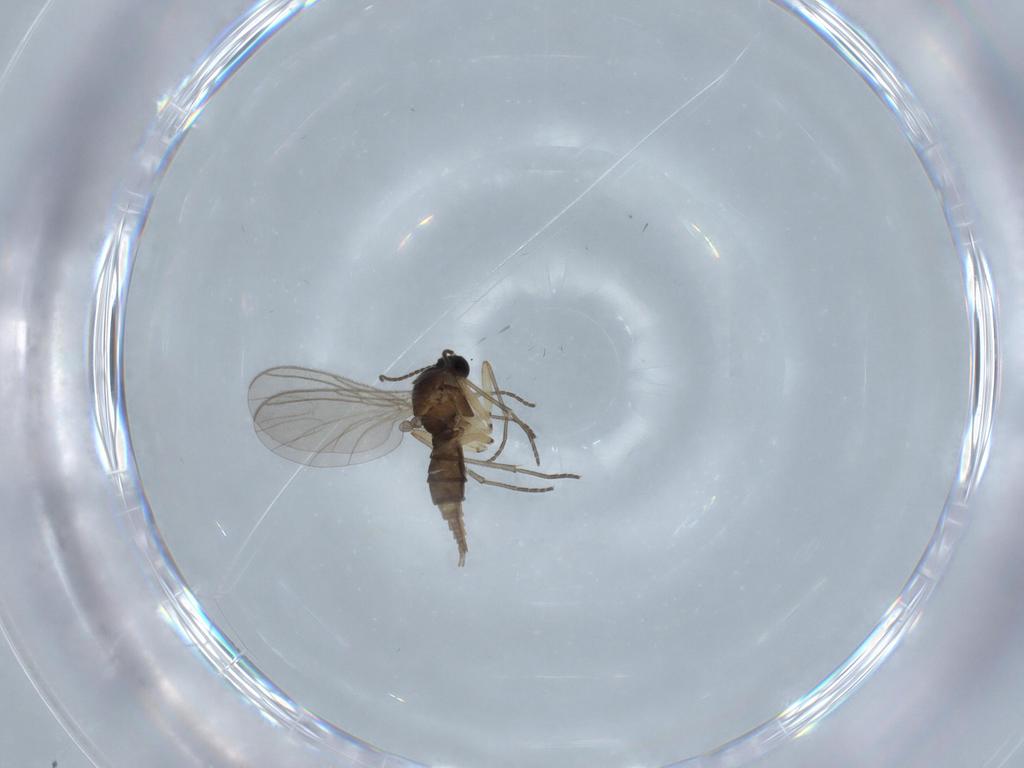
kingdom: Animalia
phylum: Arthropoda
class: Insecta
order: Diptera
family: Sciaridae
